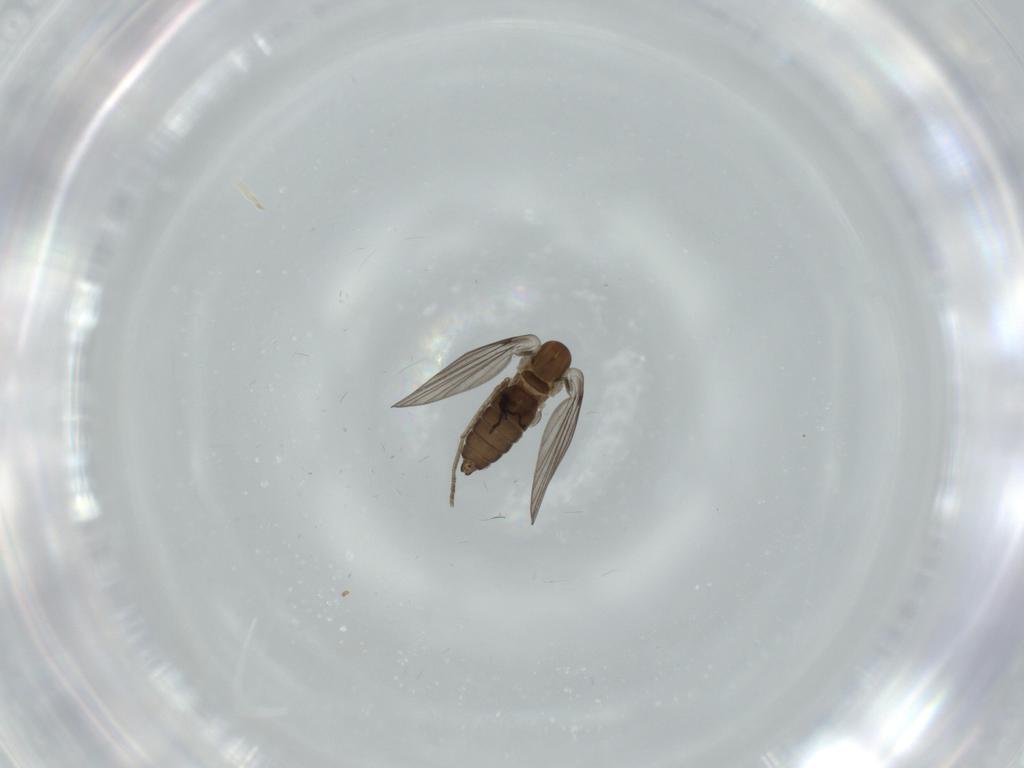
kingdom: Animalia
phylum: Arthropoda
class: Insecta
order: Diptera
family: Psychodidae
